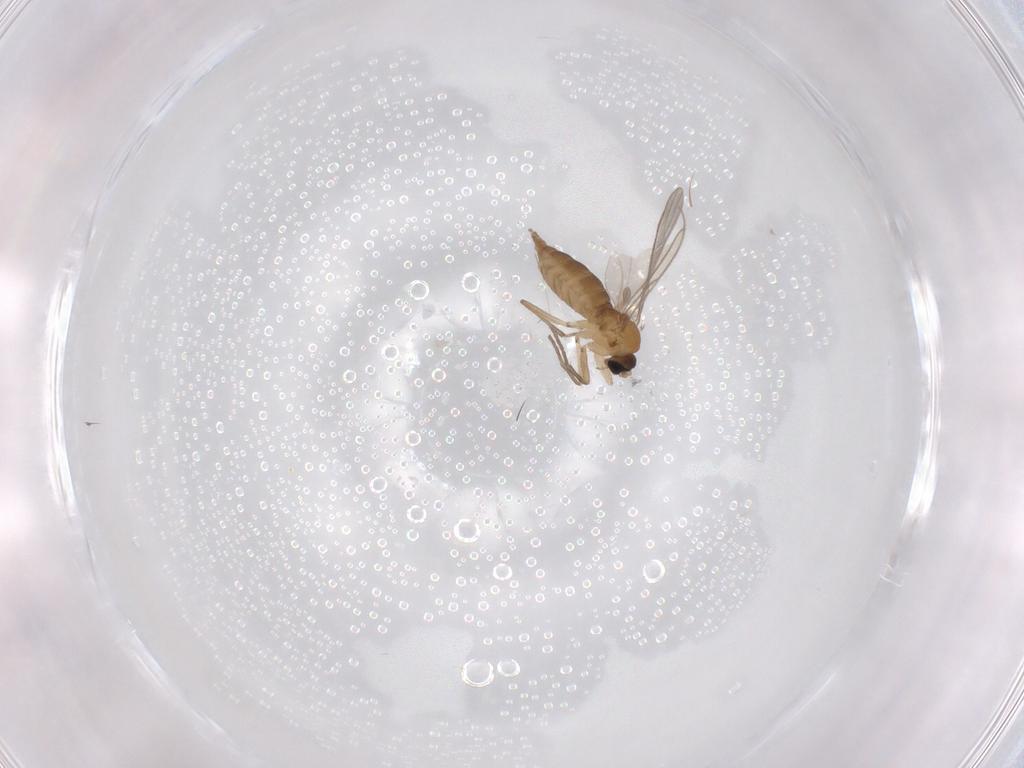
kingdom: Animalia
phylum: Arthropoda
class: Insecta
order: Diptera
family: Sciaridae
